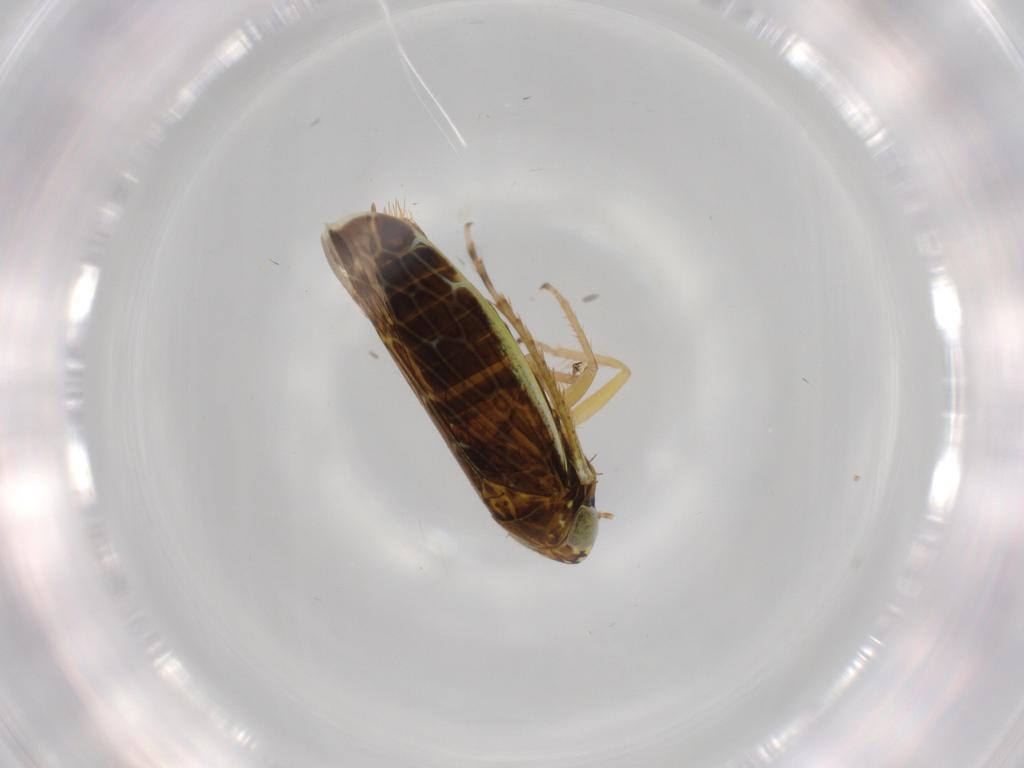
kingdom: Animalia
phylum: Arthropoda
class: Insecta
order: Hemiptera
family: Cicadellidae
